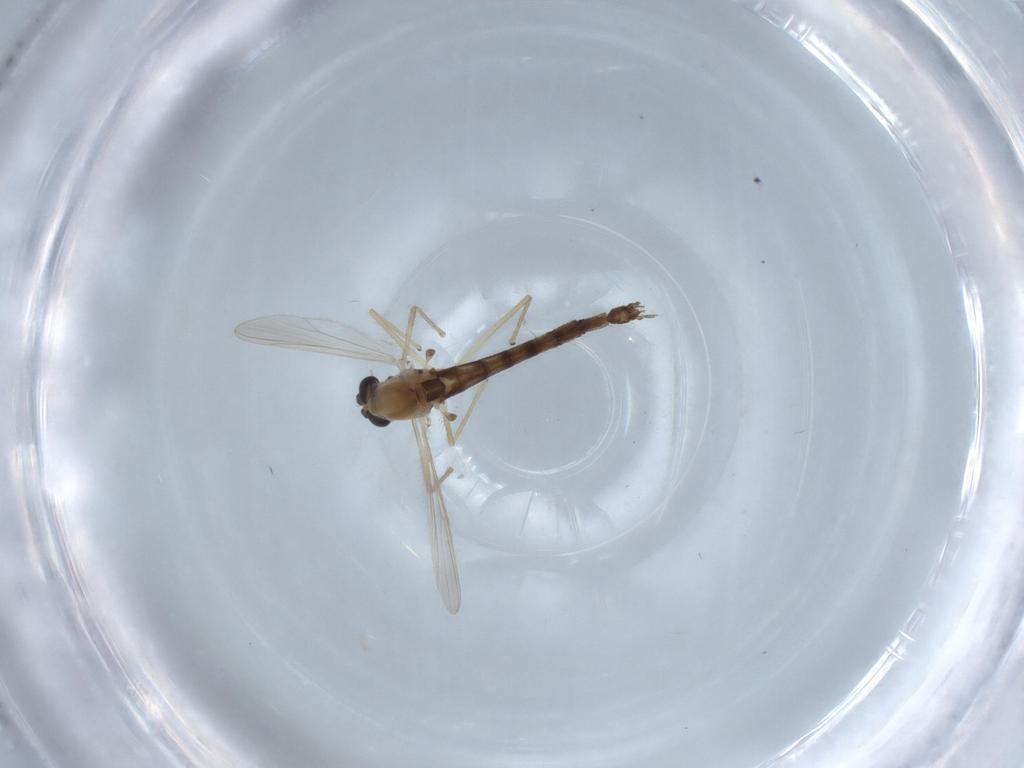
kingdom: Animalia
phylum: Arthropoda
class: Insecta
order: Diptera
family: Chironomidae
